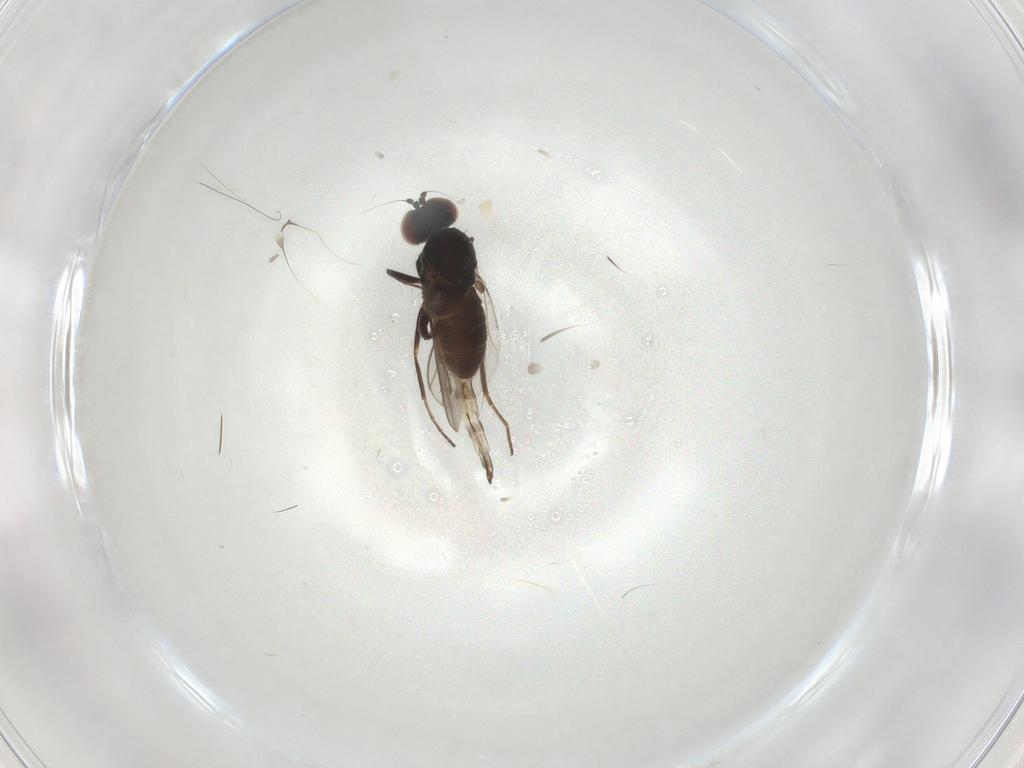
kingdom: Animalia
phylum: Arthropoda
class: Insecta
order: Diptera
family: Dolichopodidae
